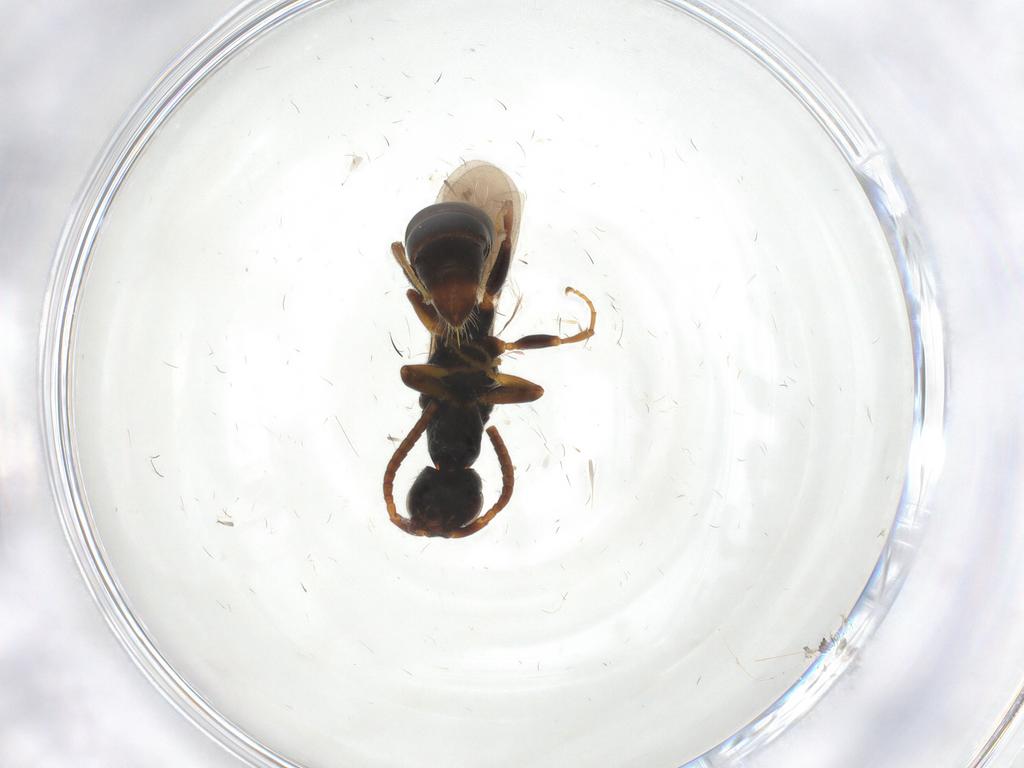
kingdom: Animalia
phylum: Arthropoda
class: Insecta
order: Hymenoptera
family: Bethylidae
